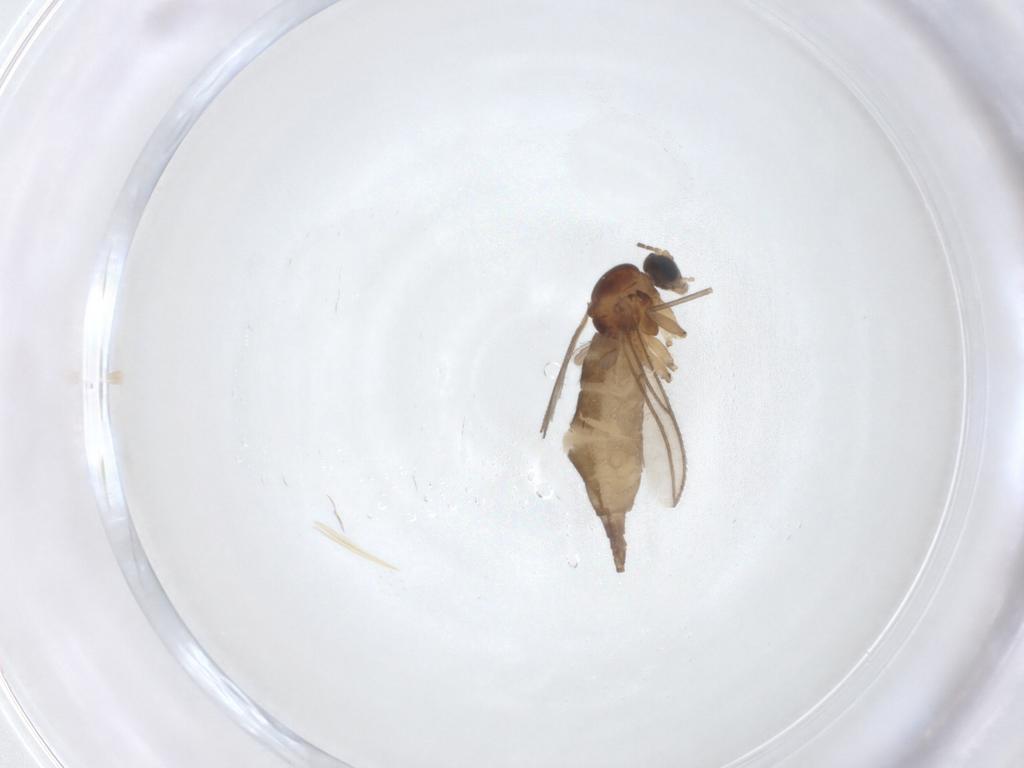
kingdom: Animalia
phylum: Arthropoda
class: Insecta
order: Diptera
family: Sciaridae
